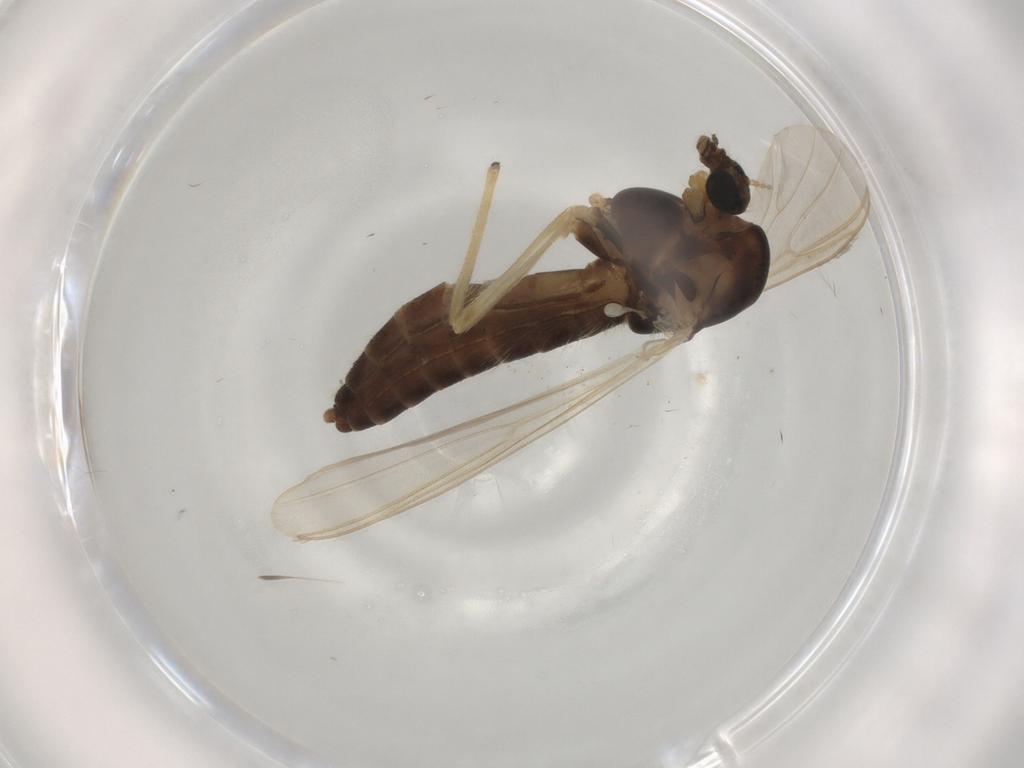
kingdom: Animalia
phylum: Arthropoda
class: Insecta
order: Diptera
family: Chironomidae
